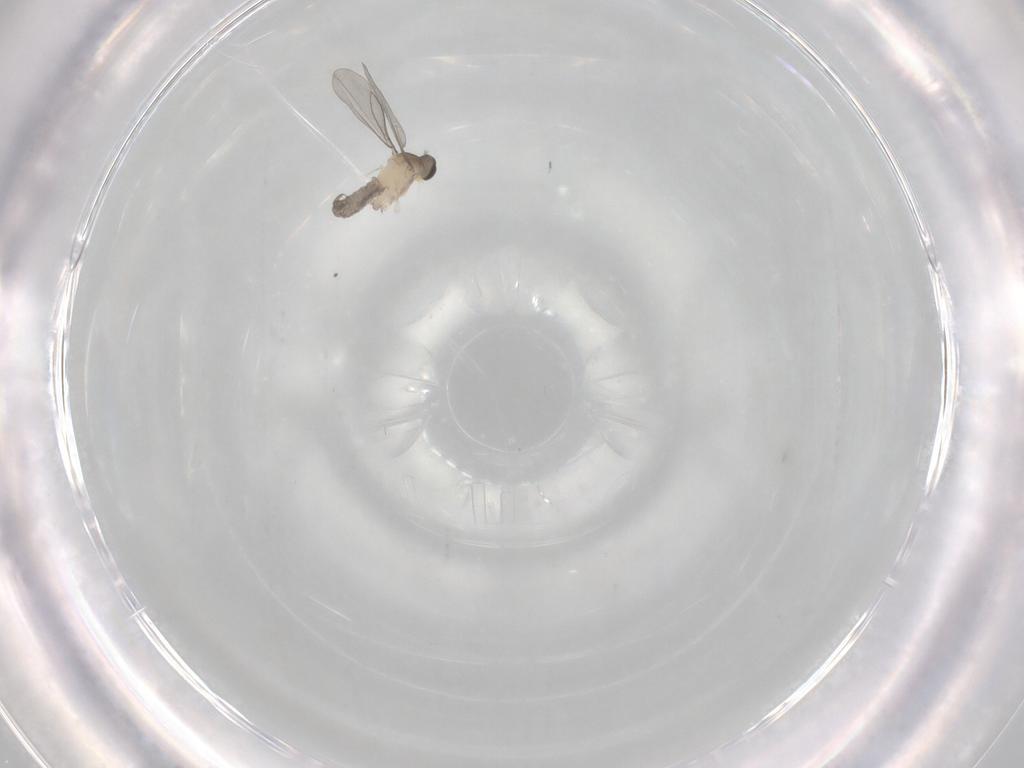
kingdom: Animalia
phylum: Arthropoda
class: Insecta
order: Diptera
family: Cecidomyiidae
